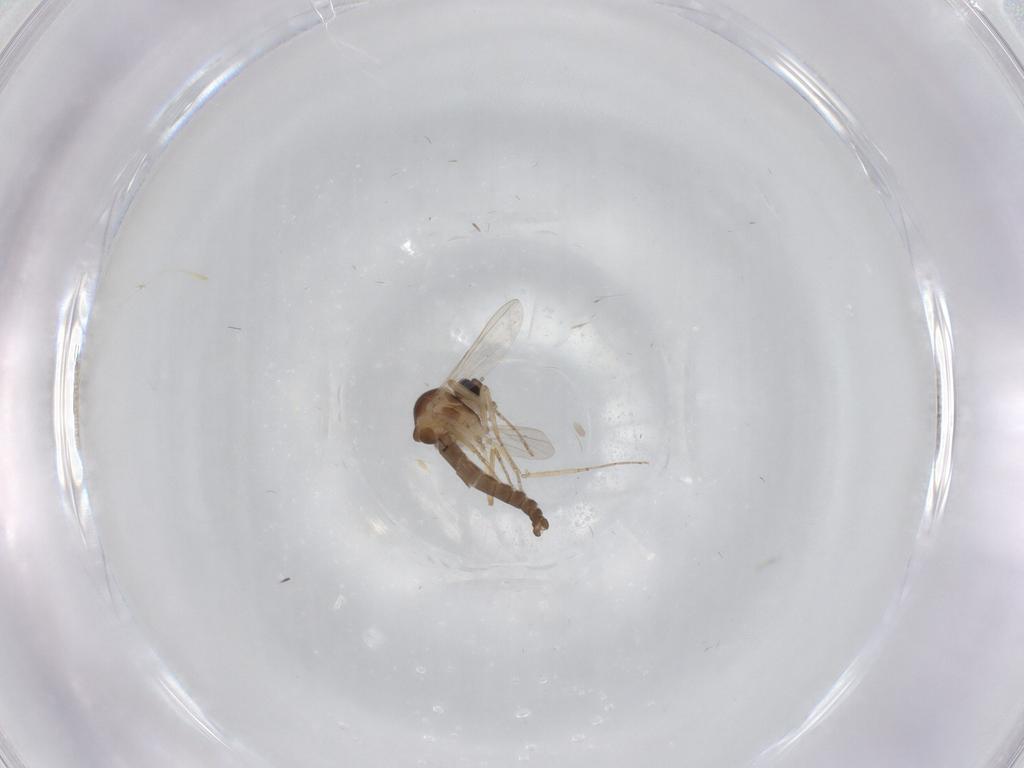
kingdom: Animalia
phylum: Arthropoda
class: Insecta
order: Diptera
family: Ceratopogonidae
